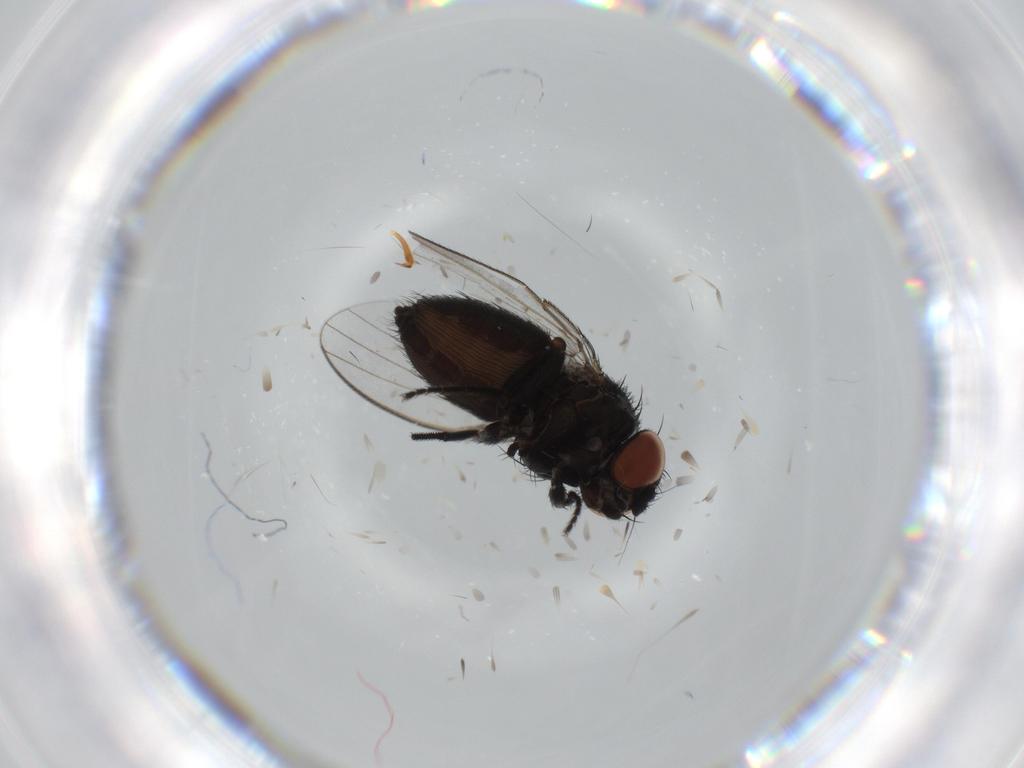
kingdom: Animalia
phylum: Arthropoda
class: Insecta
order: Diptera
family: Milichiidae
